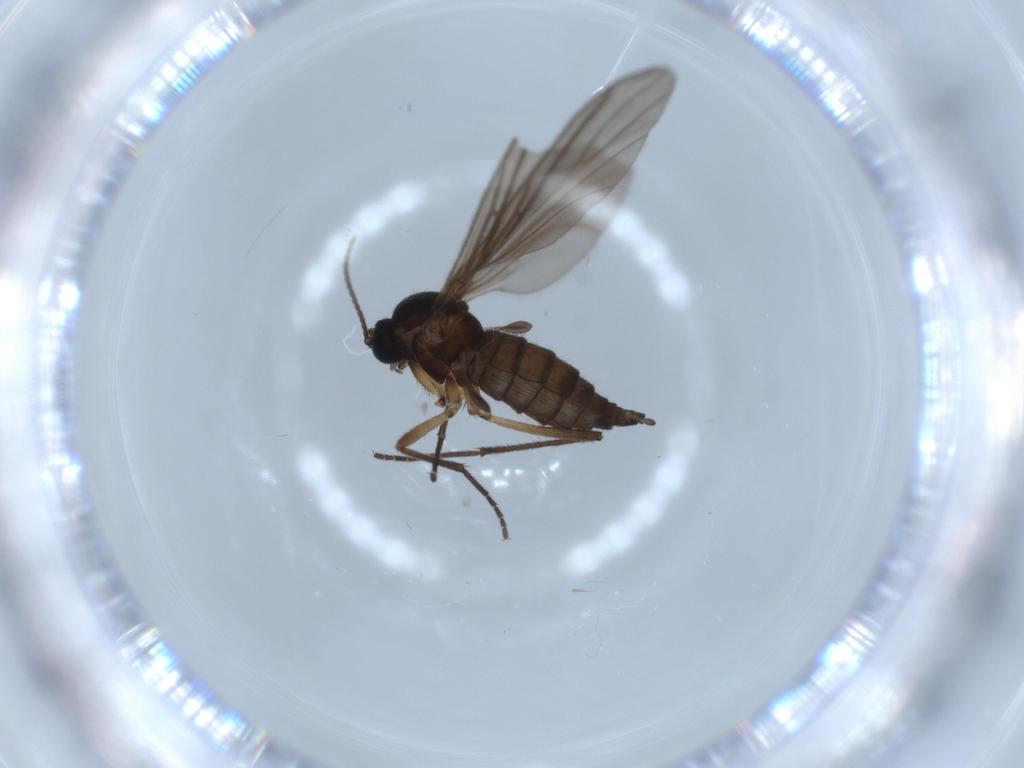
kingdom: Animalia
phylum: Arthropoda
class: Insecta
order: Diptera
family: Sciaridae
